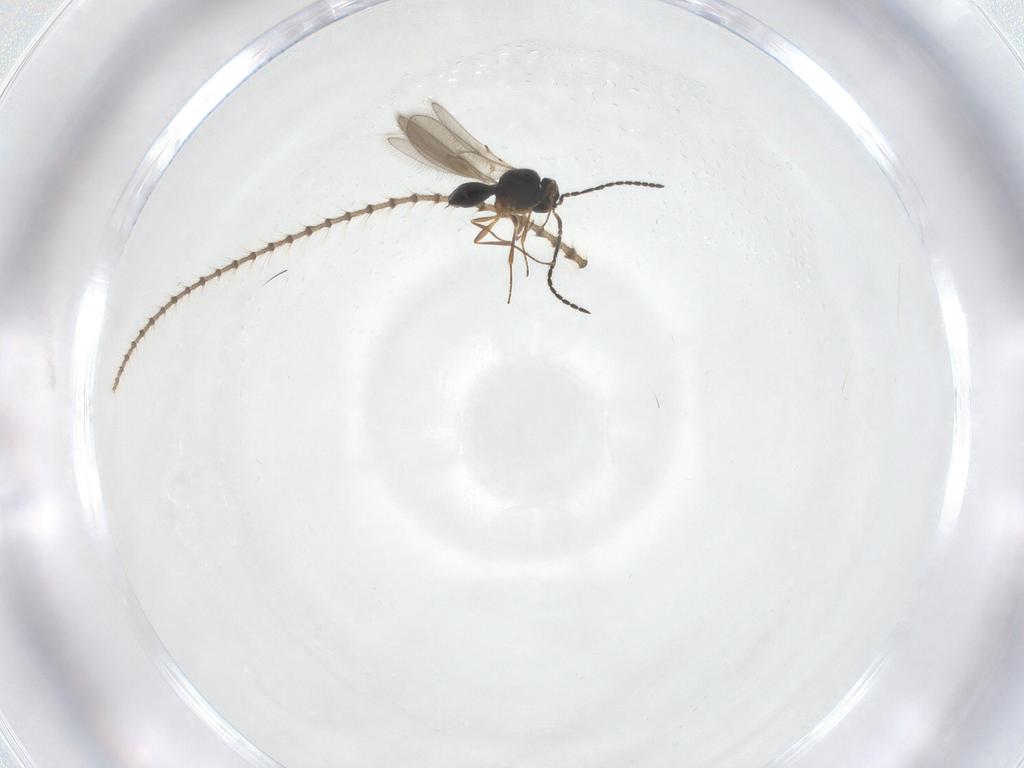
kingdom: Animalia
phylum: Arthropoda
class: Insecta
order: Hymenoptera
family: Scelionidae
